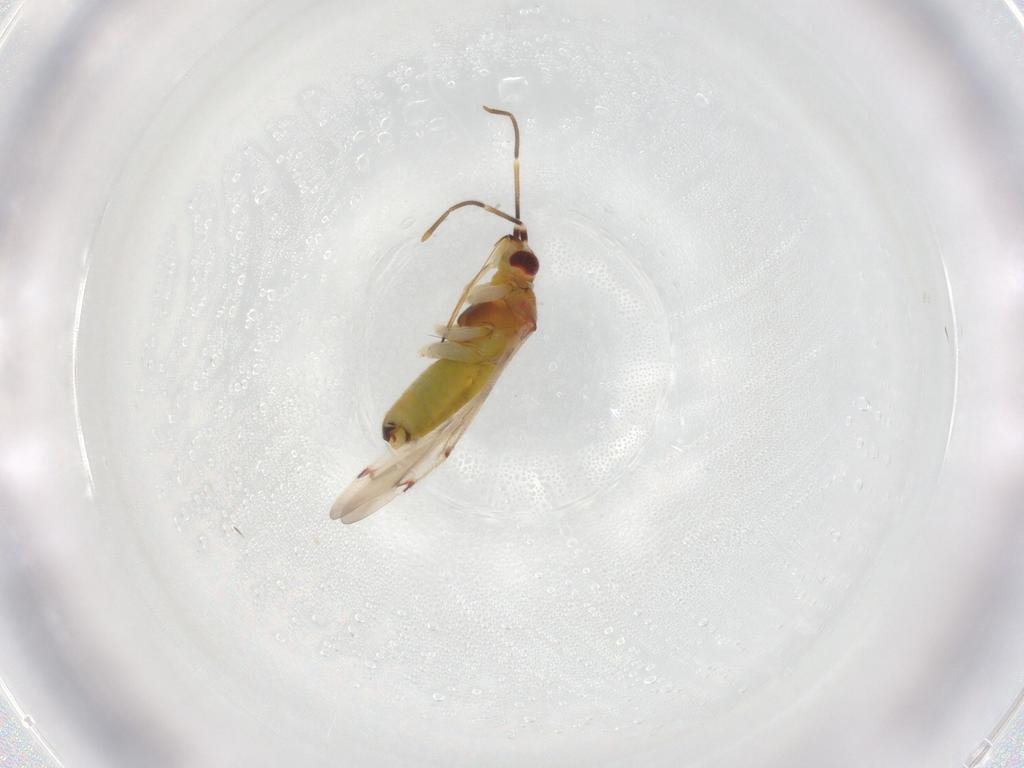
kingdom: Animalia
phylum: Arthropoda
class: Insecta
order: Hemiptera
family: Miridae
